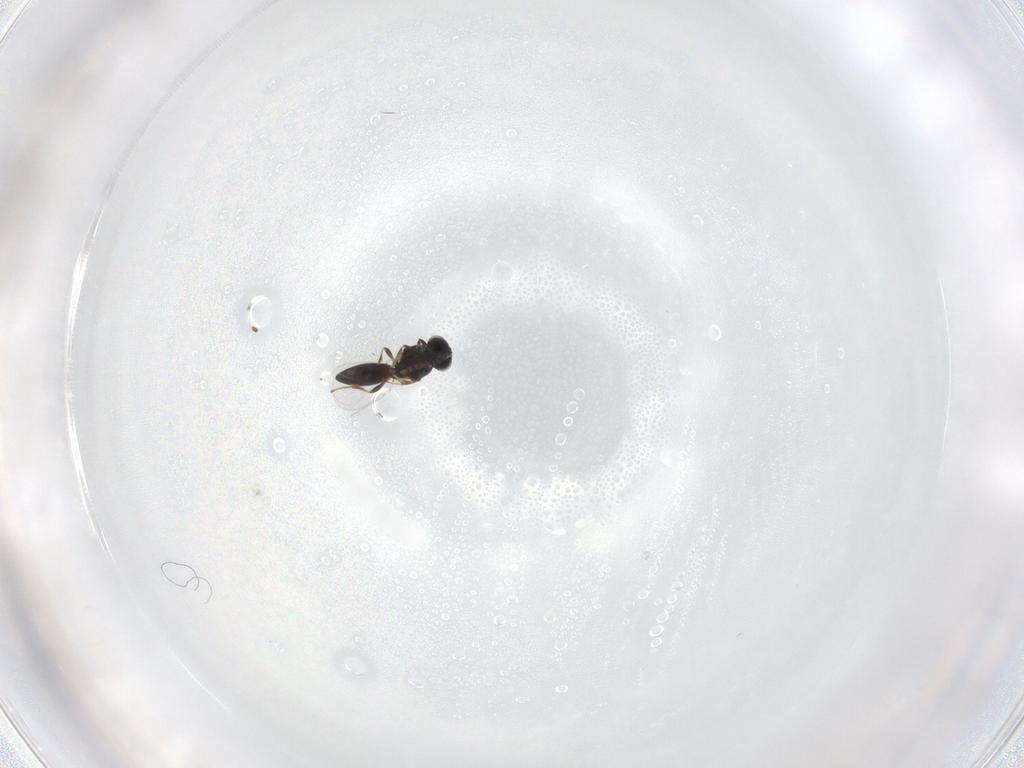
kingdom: Animalia
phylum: Arthropoda
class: Insecta
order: Hymenoptera
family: Platygastridae
